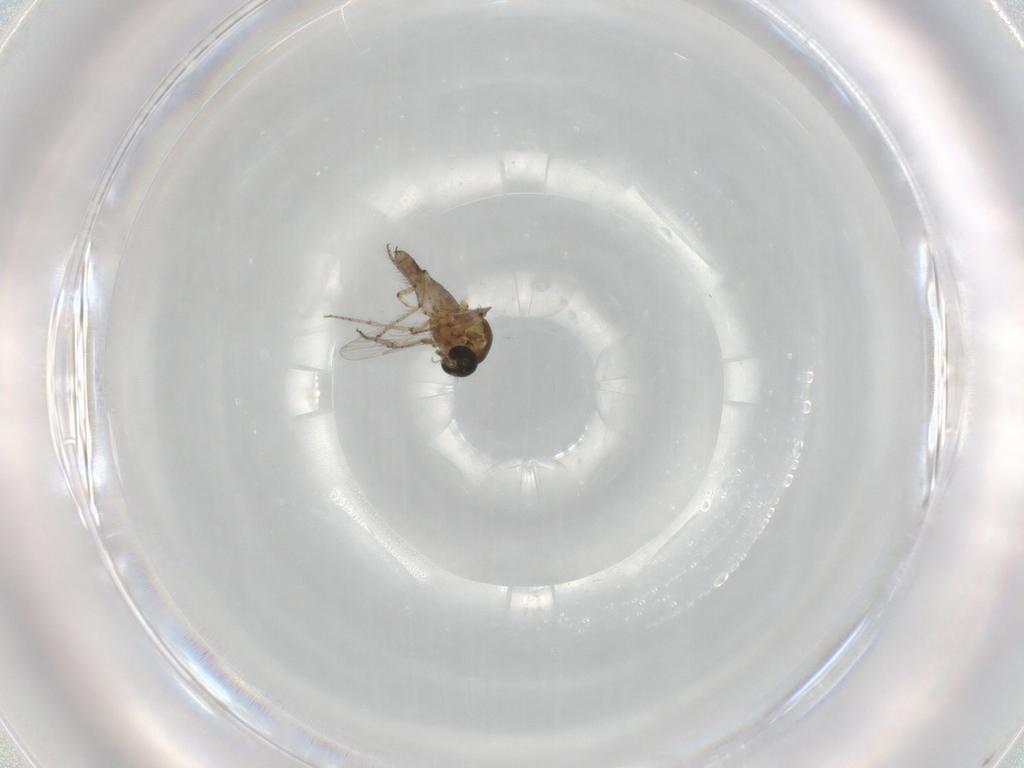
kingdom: Animalia
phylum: Arthropoda
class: Insecta
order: Diptera
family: Ceratopogonidae
